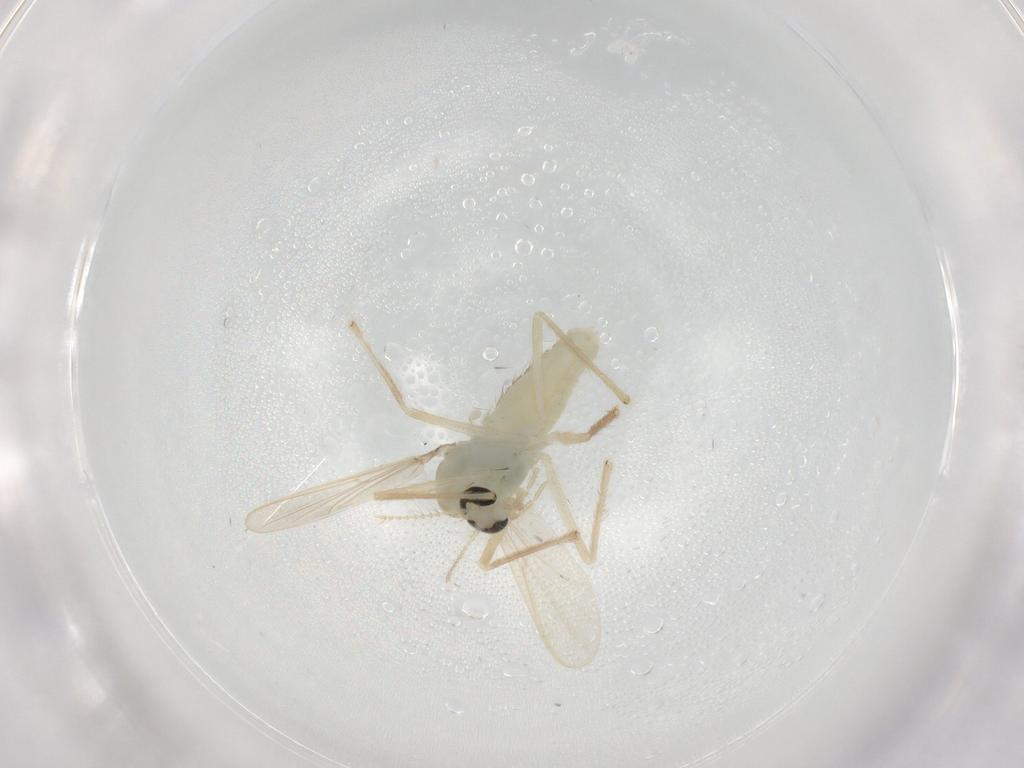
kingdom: Animalia
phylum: Arthropoda
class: Insecta
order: Diptera
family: Chironomidae
